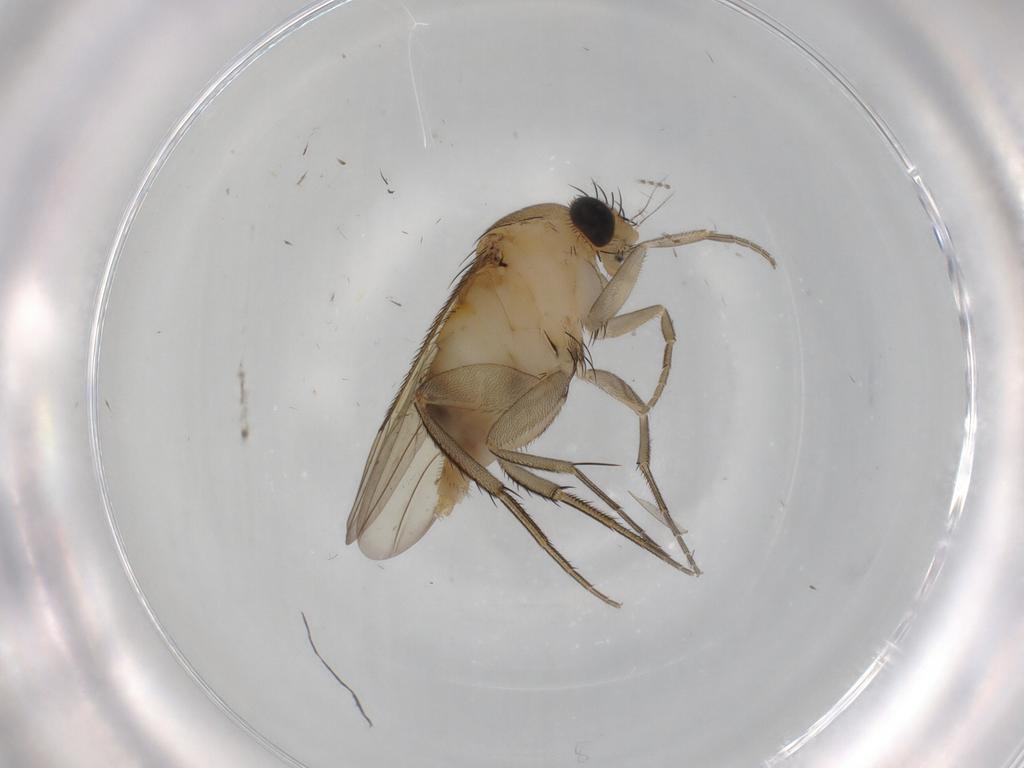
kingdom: Animalia
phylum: Arthropoda
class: Insecta
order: Diptera
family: Phoridae
